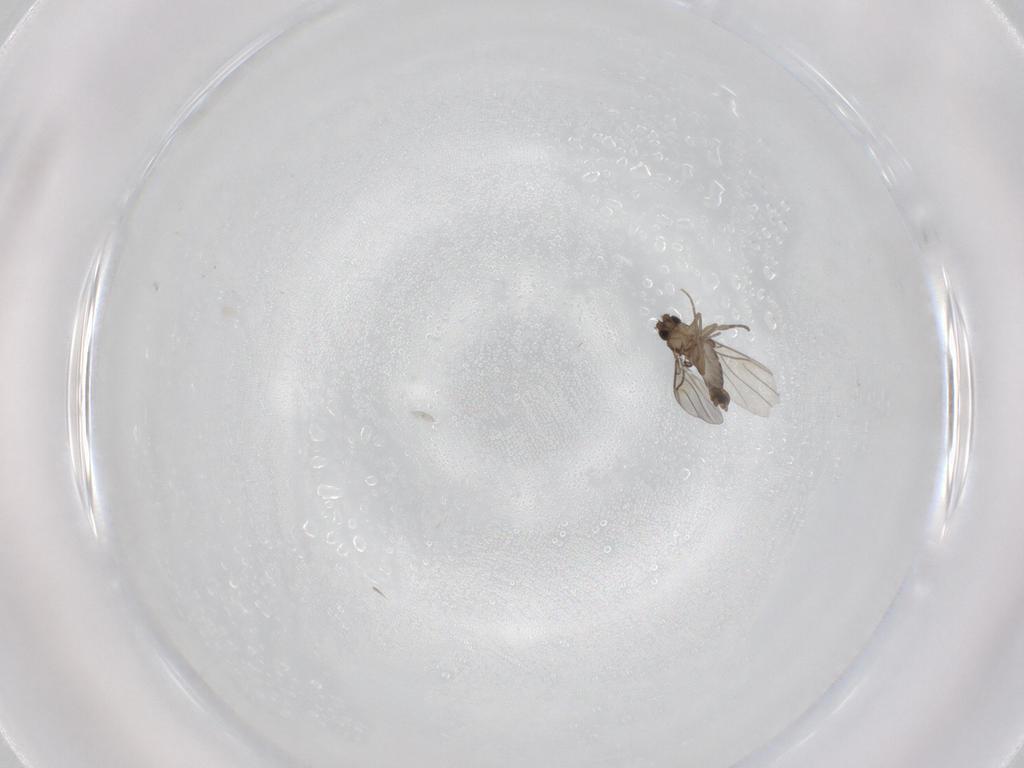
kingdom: Animalia
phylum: Arthropoda
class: Insecta
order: Diptera
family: Phoridae
